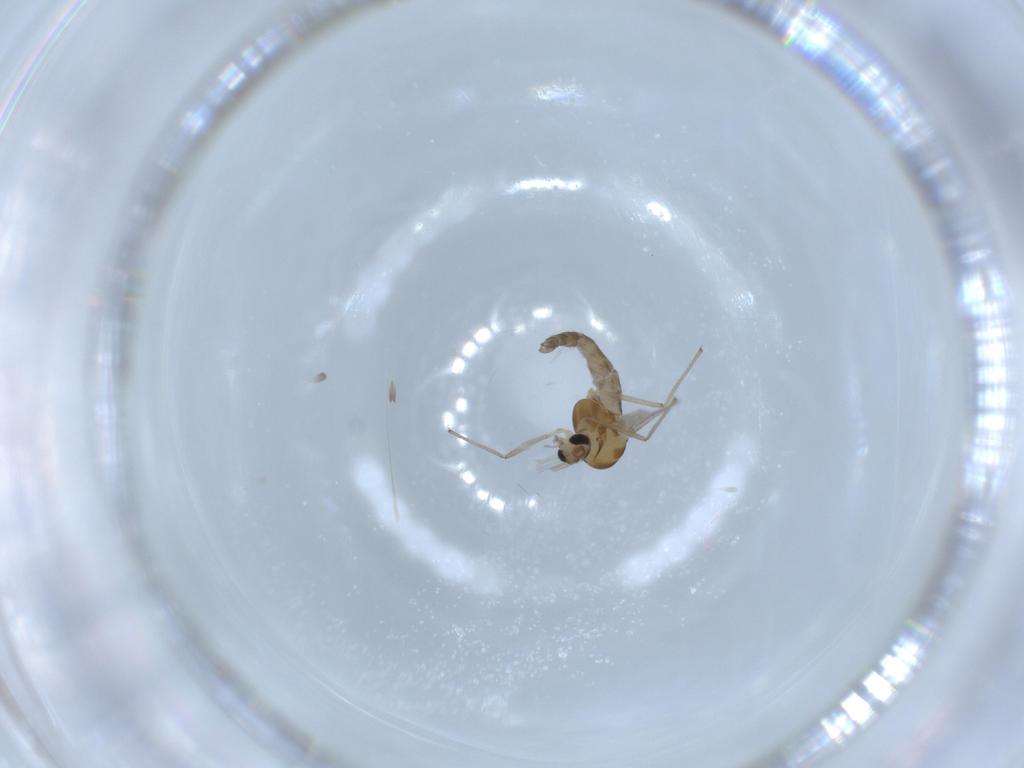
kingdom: Animalia
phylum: Arthropoda
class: Insecta
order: Diptera
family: Chironomidae
